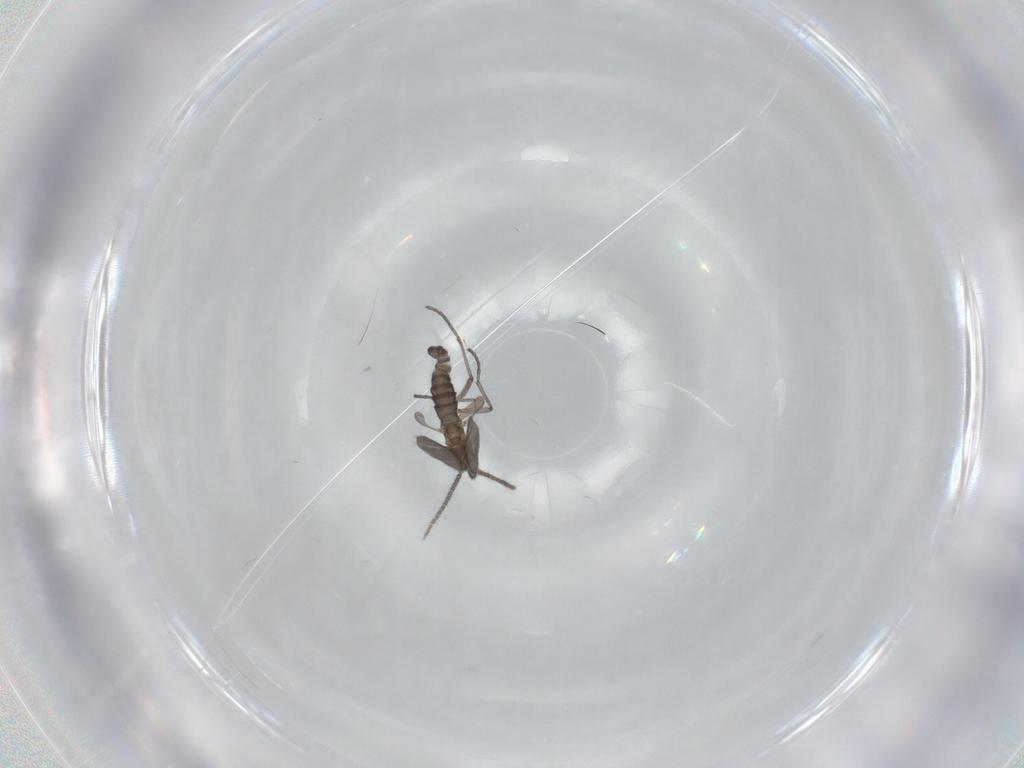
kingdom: Animalia
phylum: Arthropoda
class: Insecta
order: Diptera
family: Sciaridae
